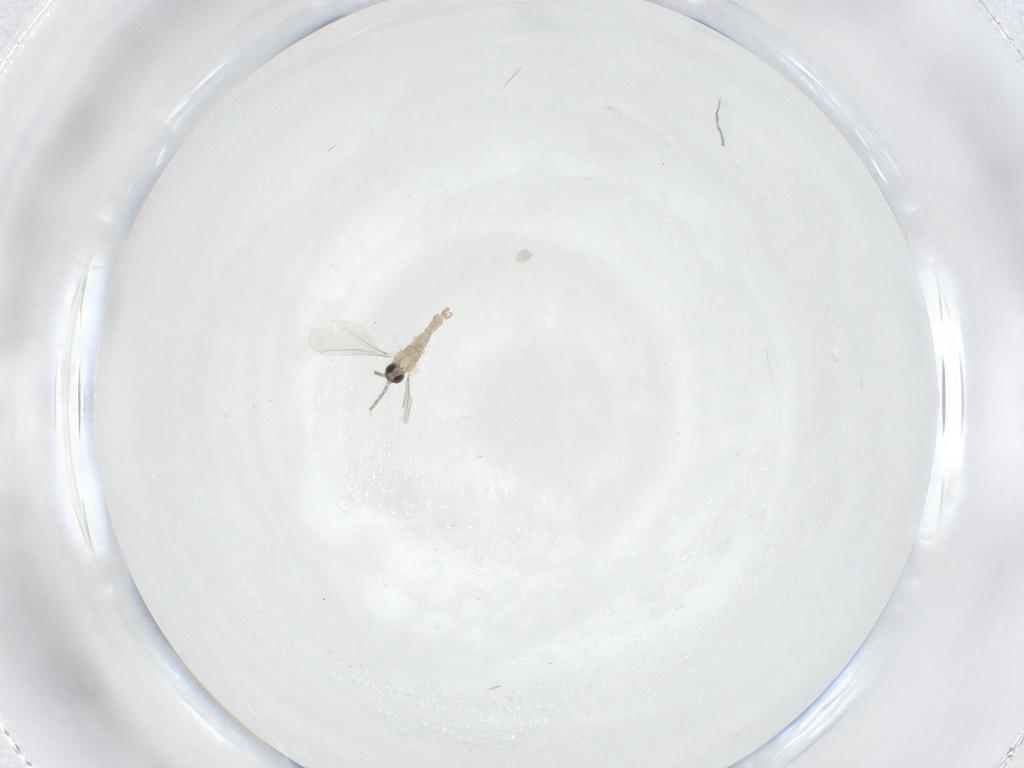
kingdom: Animalia
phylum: Arthropoda
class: Insecta
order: Diptera
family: Cecidomyiidae
